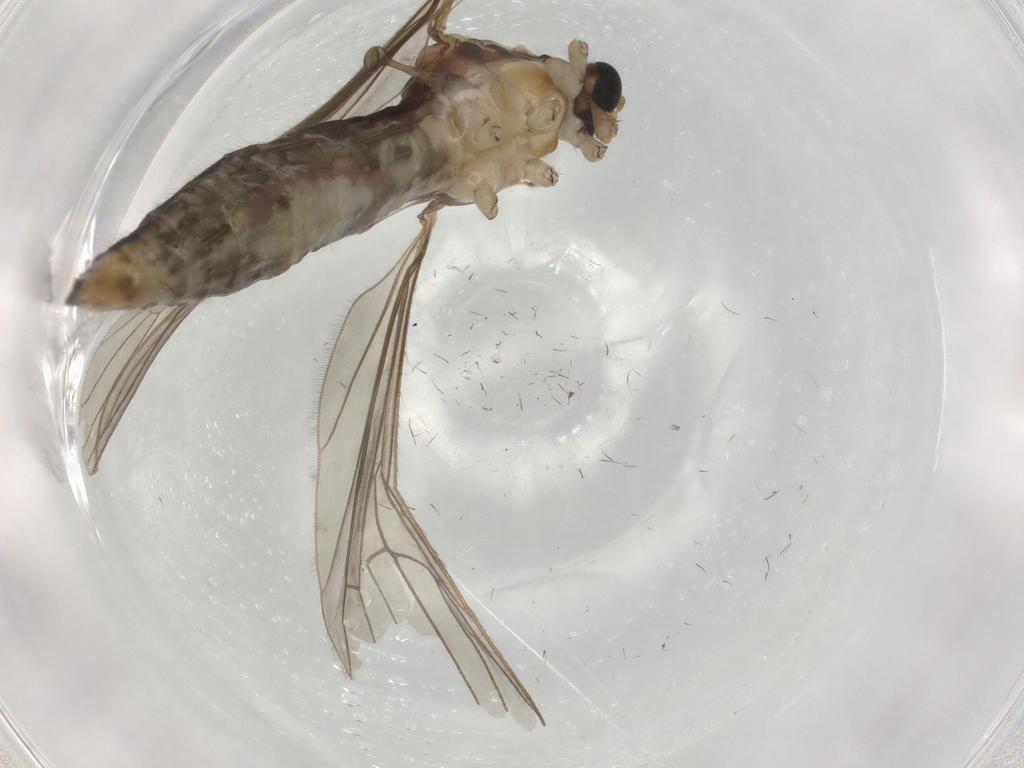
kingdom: Animalia
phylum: Arthropoda
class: Insecta
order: Diptera
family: Limoniidae
